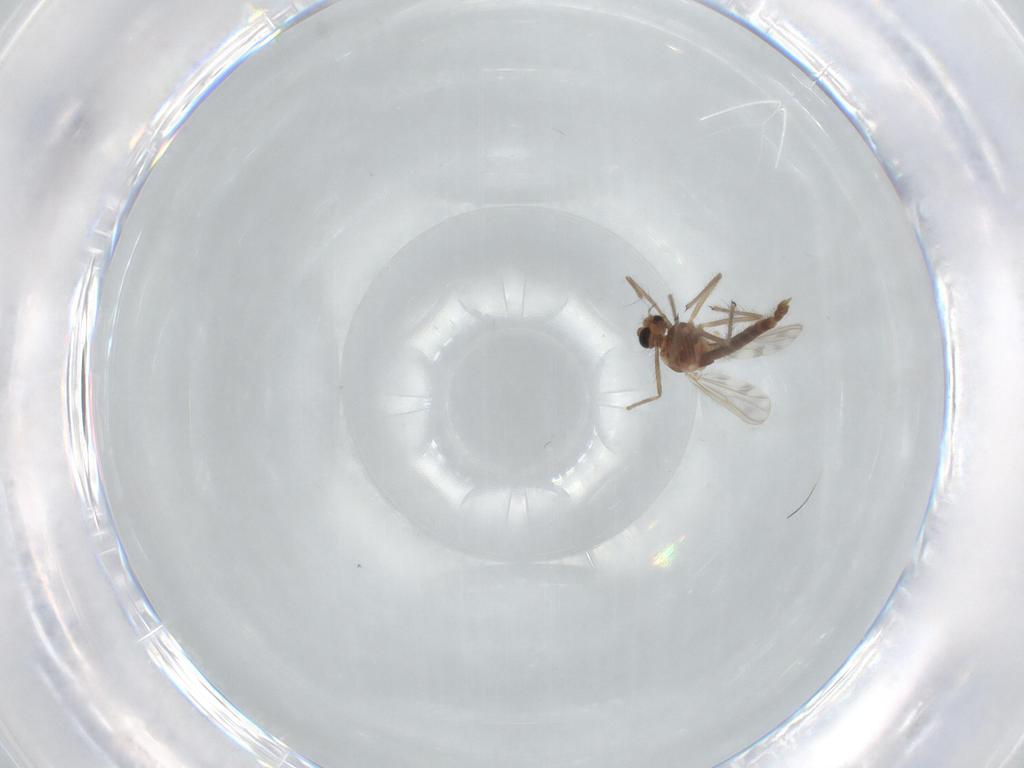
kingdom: Animalia
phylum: Arthropoda
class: Insecta
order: Diptera
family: Chironomidae
